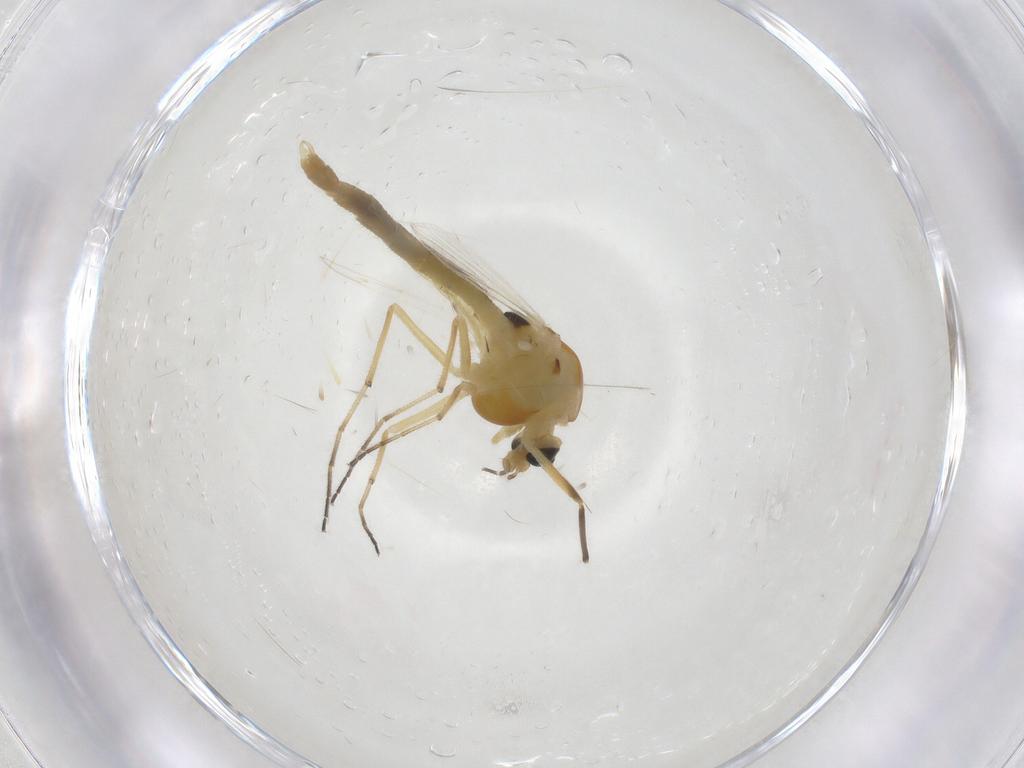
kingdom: Animalia
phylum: Arthropoda
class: Insecta
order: Diptera
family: Chironomidae
